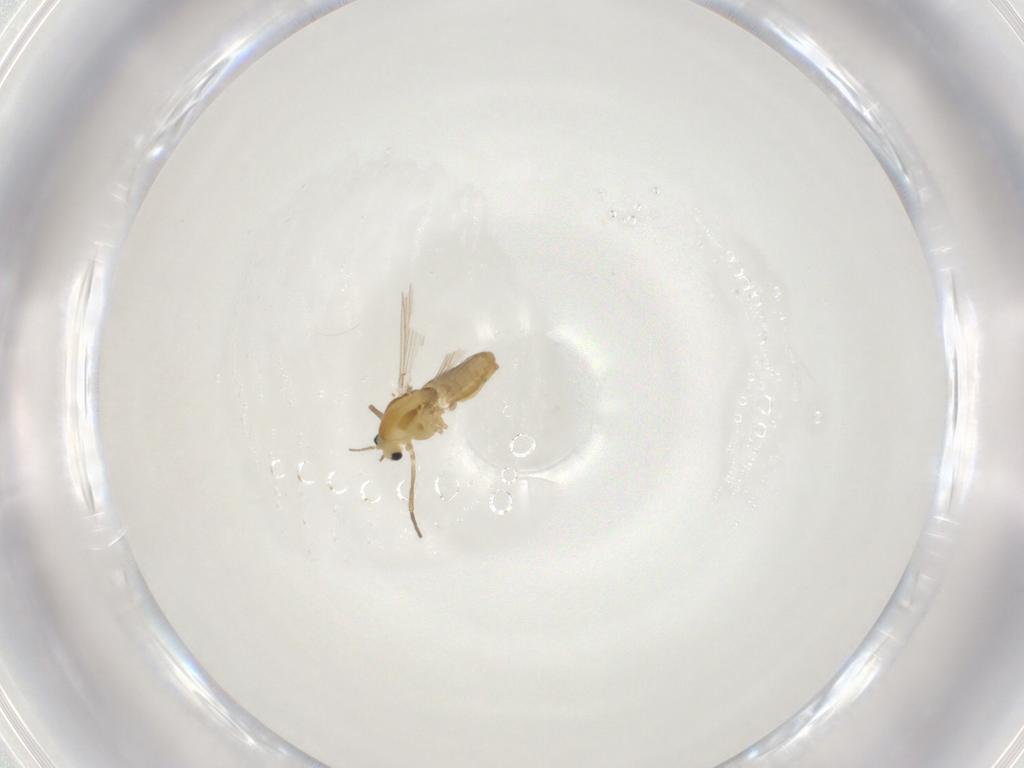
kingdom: Animalia
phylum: Arthropoda
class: Insecta
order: Diptera
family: Chironomidae
